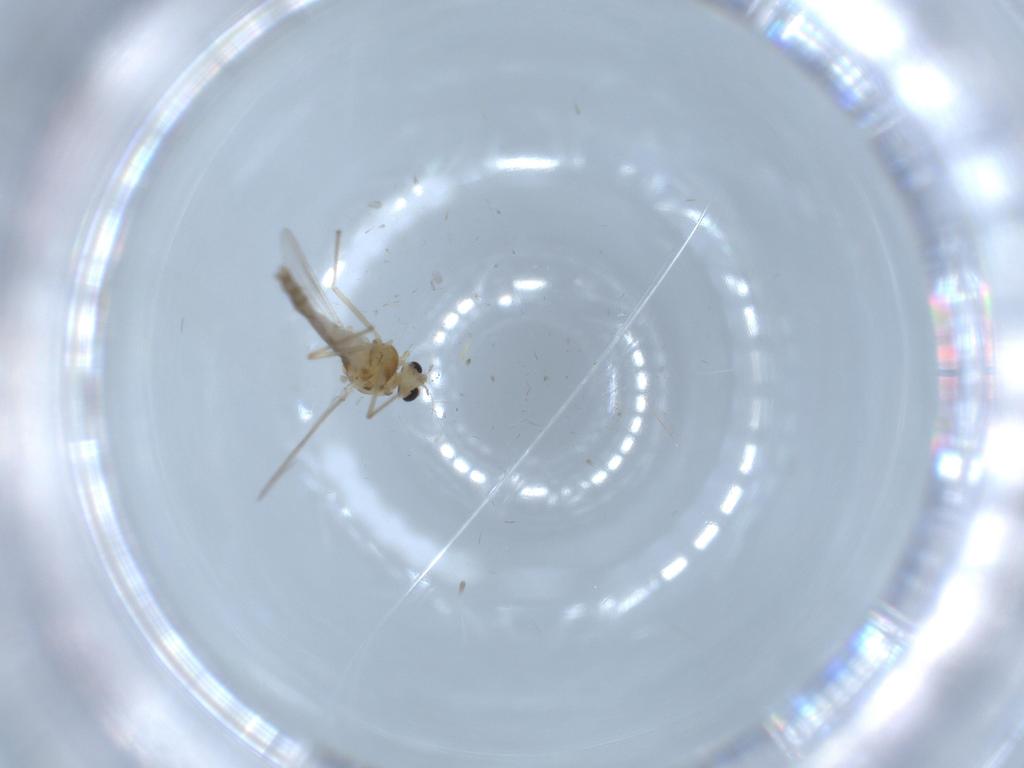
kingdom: Animalia
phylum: Arthropoda
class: Insecta
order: Diptera
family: Chironomidae
